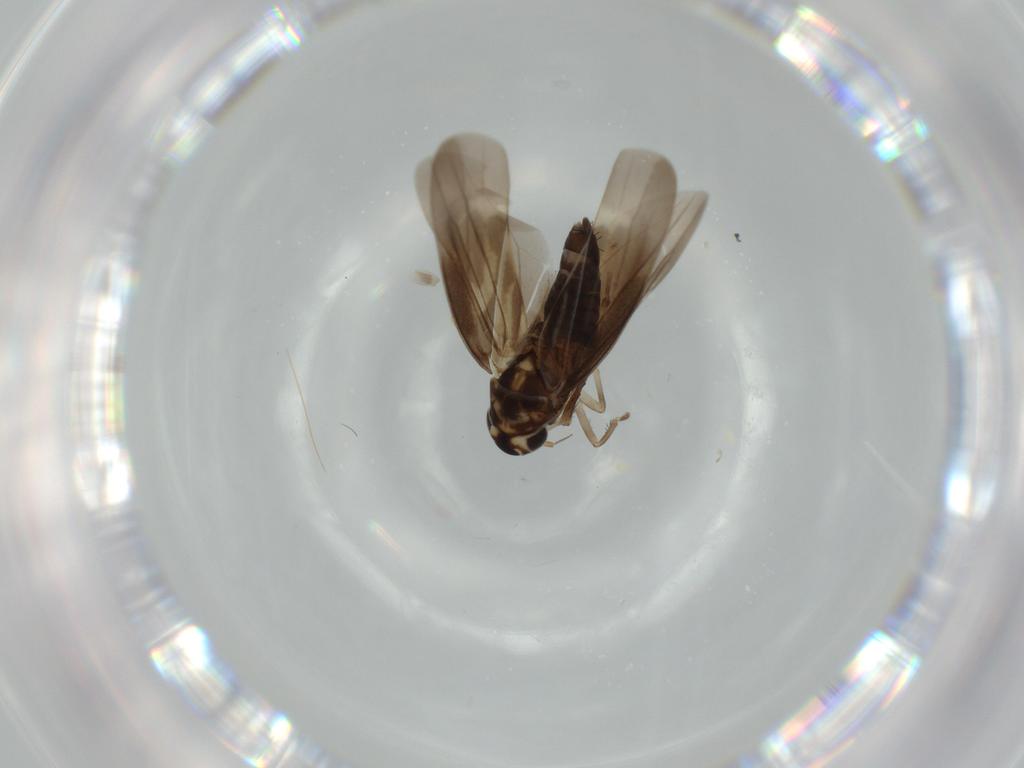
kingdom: Animalia
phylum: Arthropoda
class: Insecta
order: Hemiptera
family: Cicadellidae
